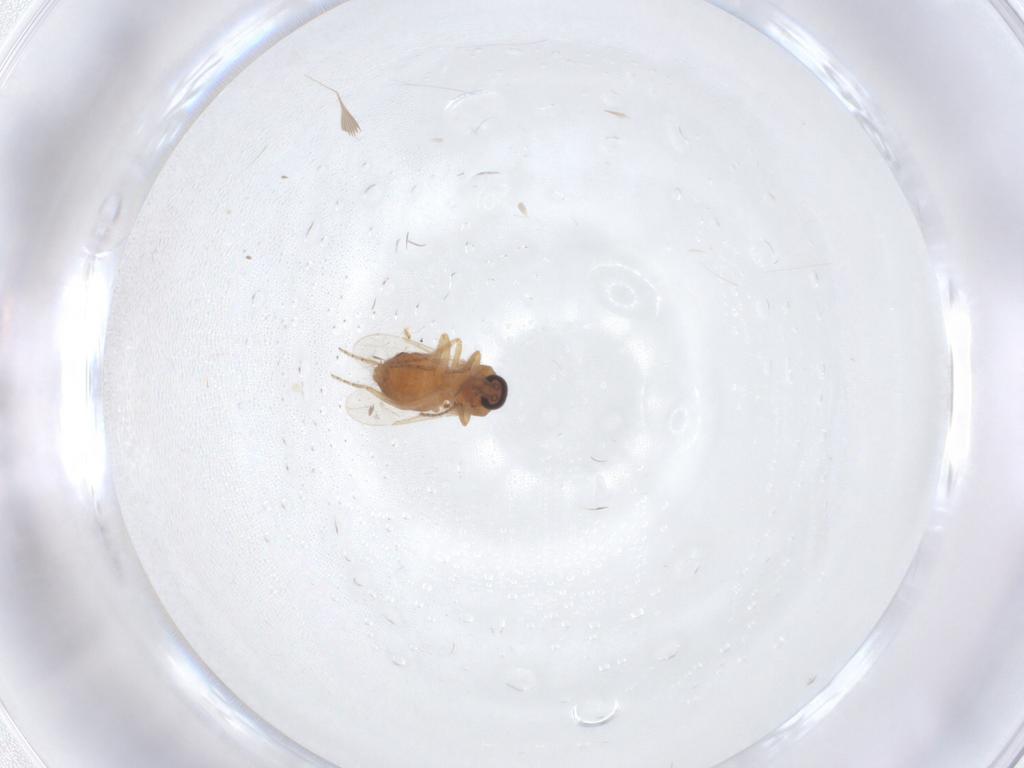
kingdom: Animalia
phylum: Arthropoda
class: Insecta
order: Diptera
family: Ceratopogonidae
